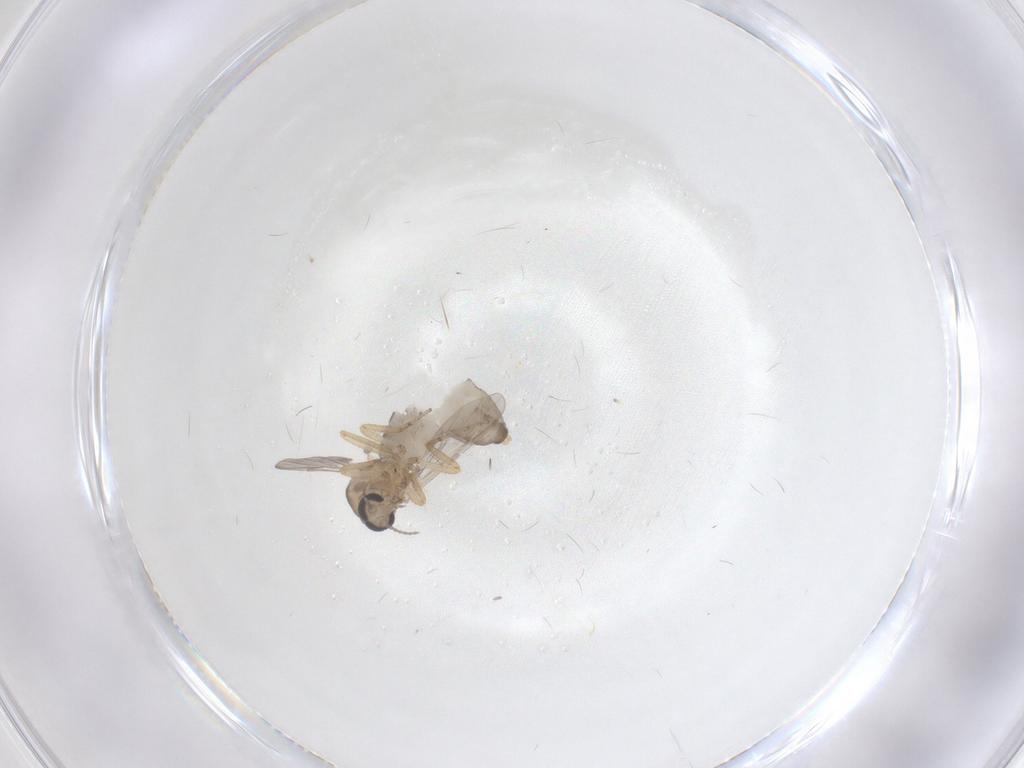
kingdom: Animalia
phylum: Arthropoda
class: Insecta
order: Diptera
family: Ceratopogonidae
